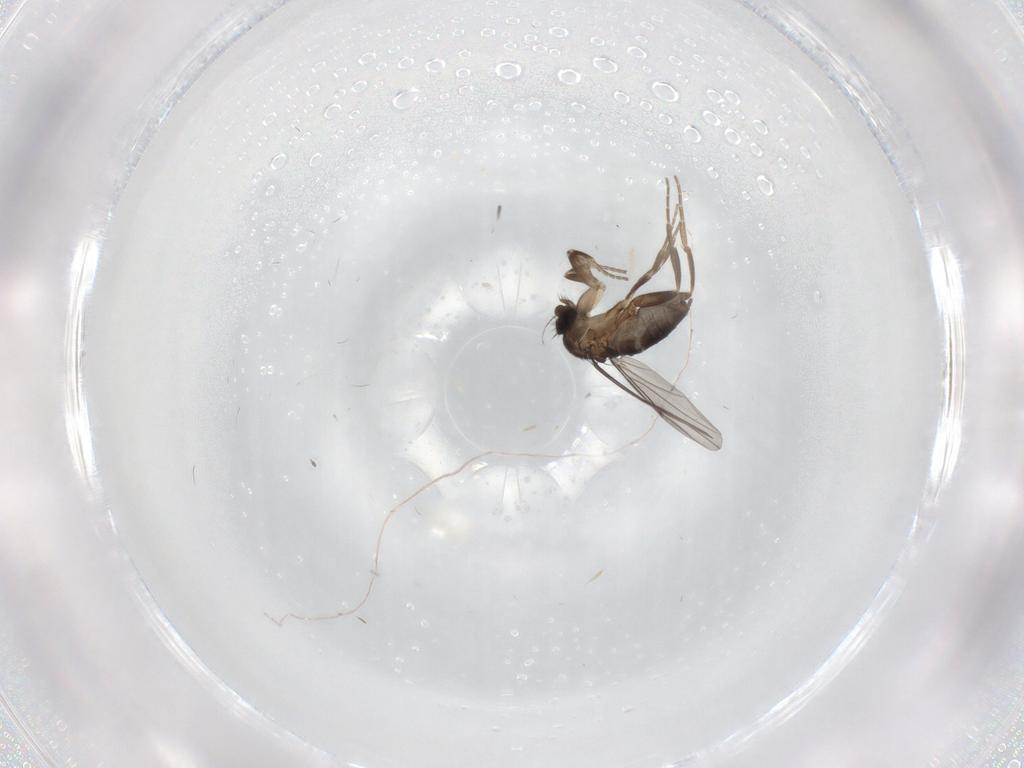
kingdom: Animalia
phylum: Arthropoda
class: Insecta
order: Diptera
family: Phoridae
